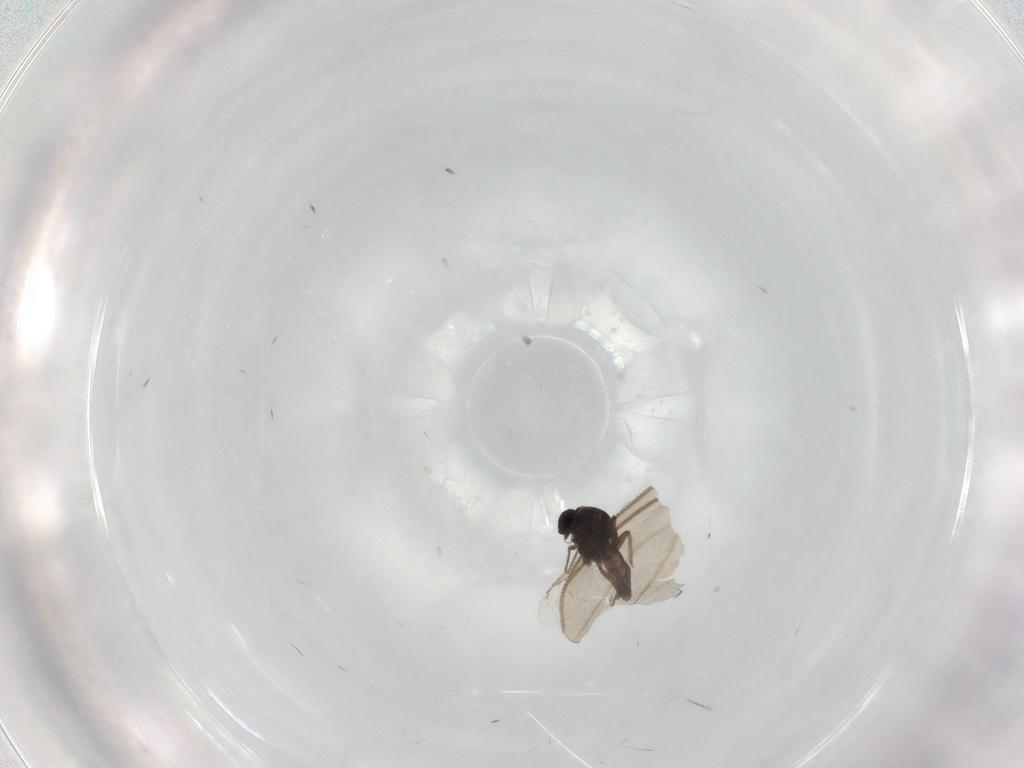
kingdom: Animalia
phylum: Arthropoda
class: Insecta
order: Diptera
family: Ceratopogonidae
